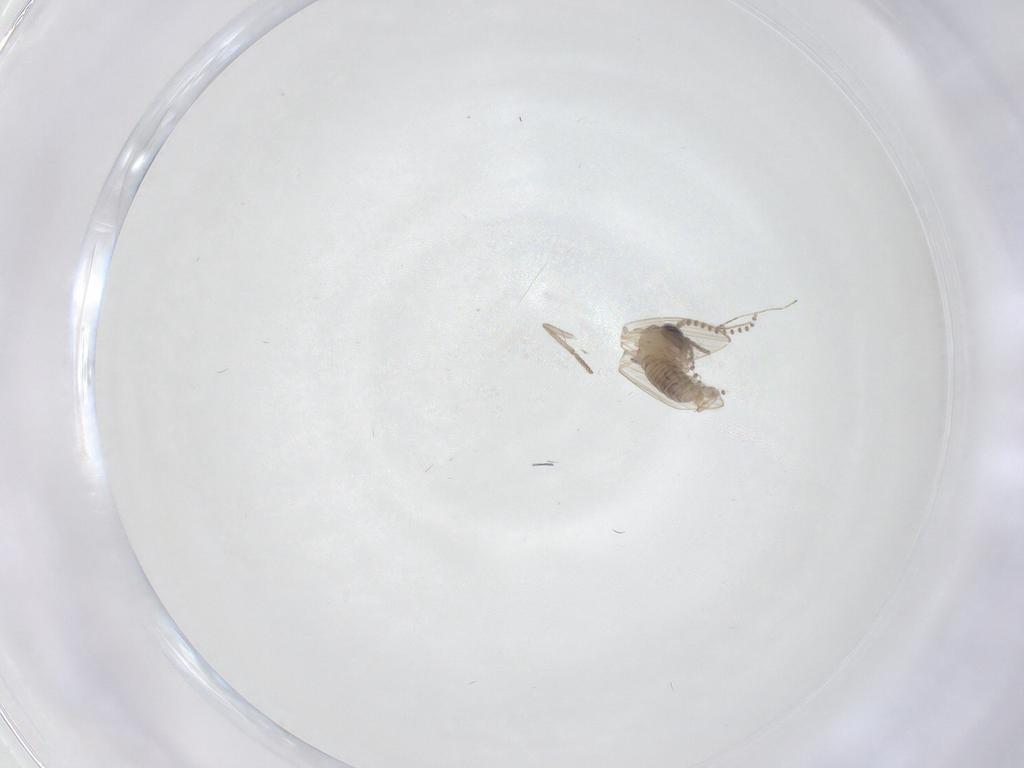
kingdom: Animalia
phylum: Arthropoda
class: Insecta
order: Diptera
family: Psychodidae
